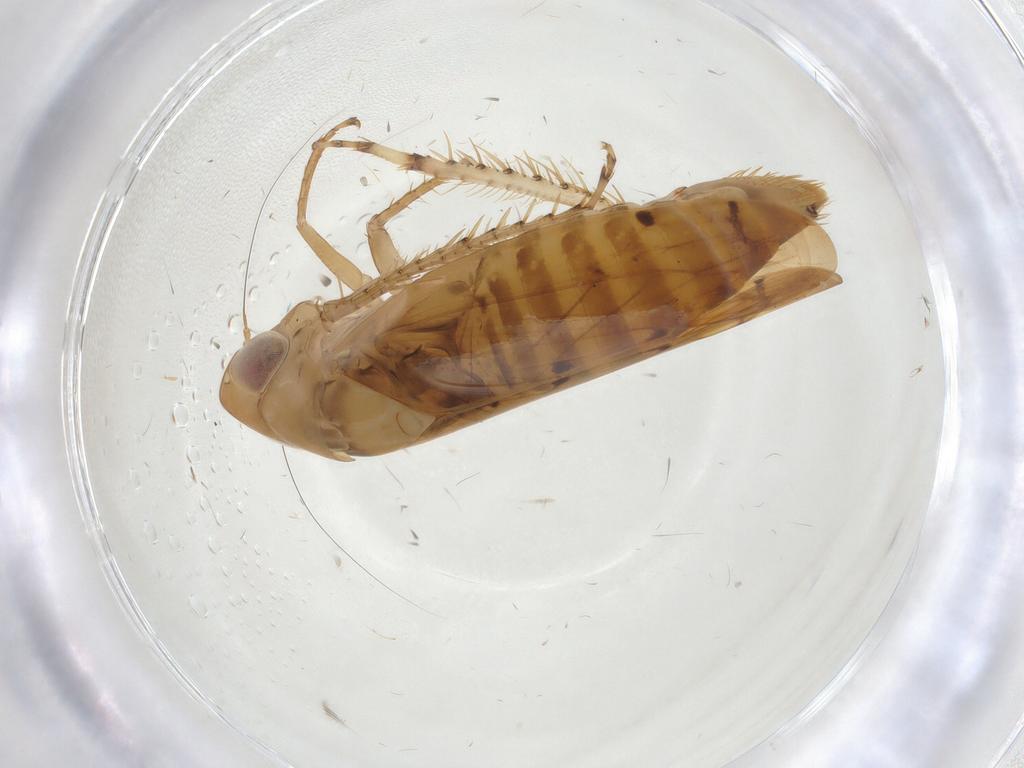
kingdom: Animalia
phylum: Arthropoda
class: Insecta
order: Hemiptera
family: Cicadellidae
